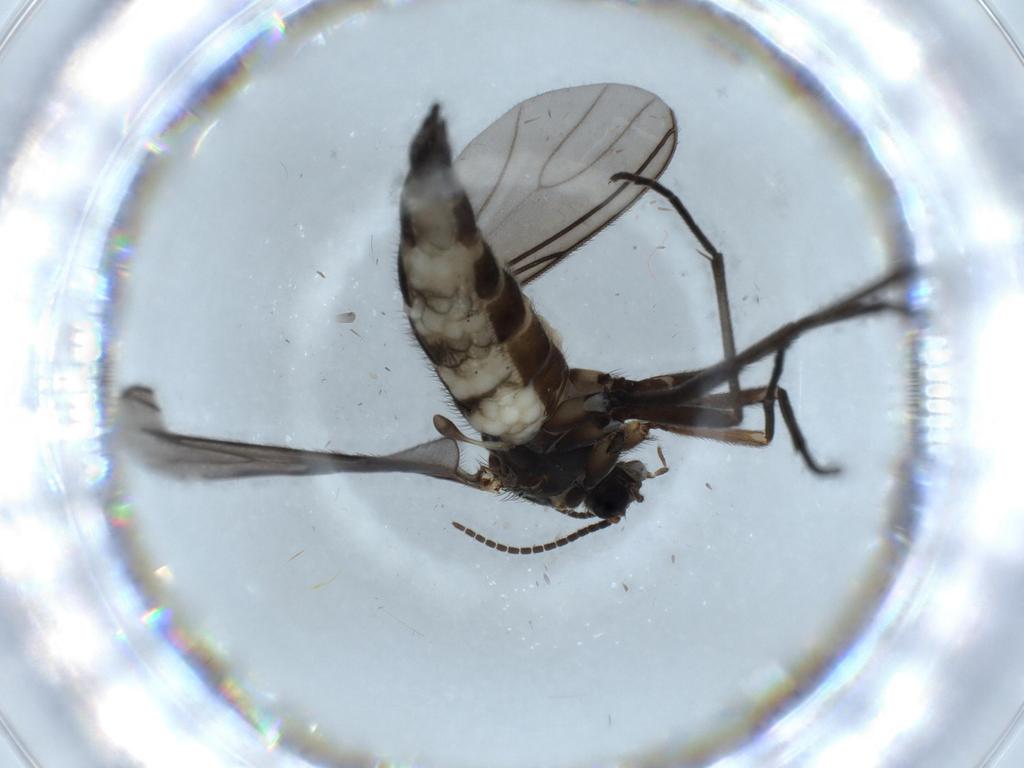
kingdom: Animalia
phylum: Arthropoda
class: Insecta
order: Diptera
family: Sciaridae
